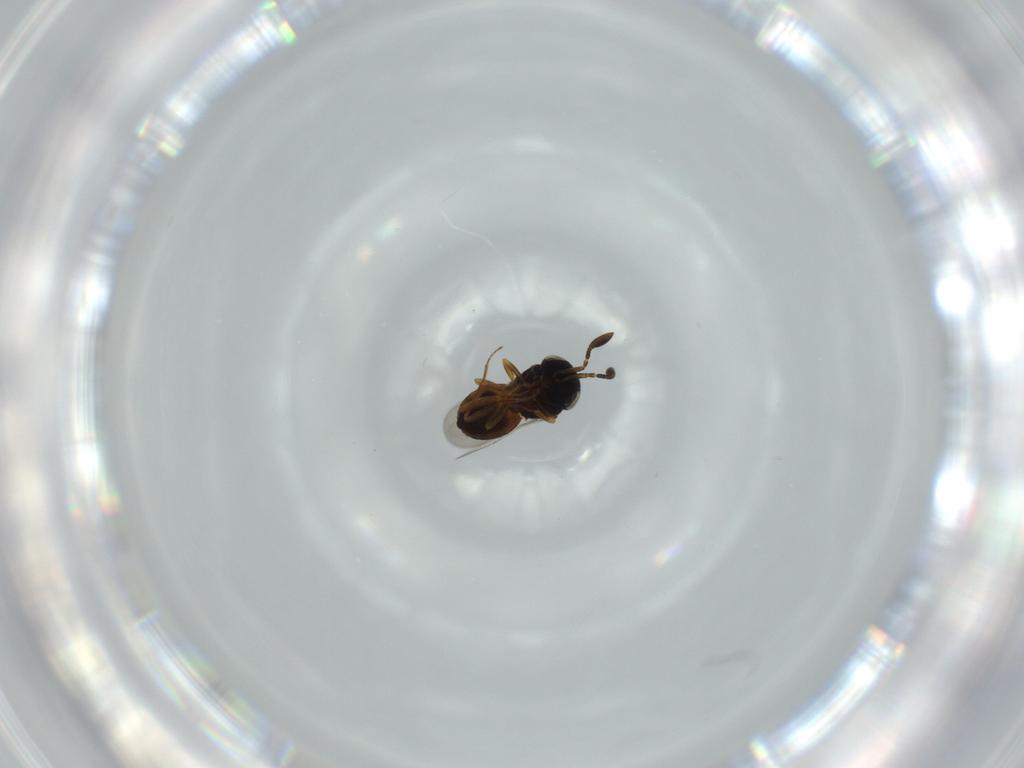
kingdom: Animalia
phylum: Arthropoda
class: Insecta
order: Coleoptera
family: Curculionidae
